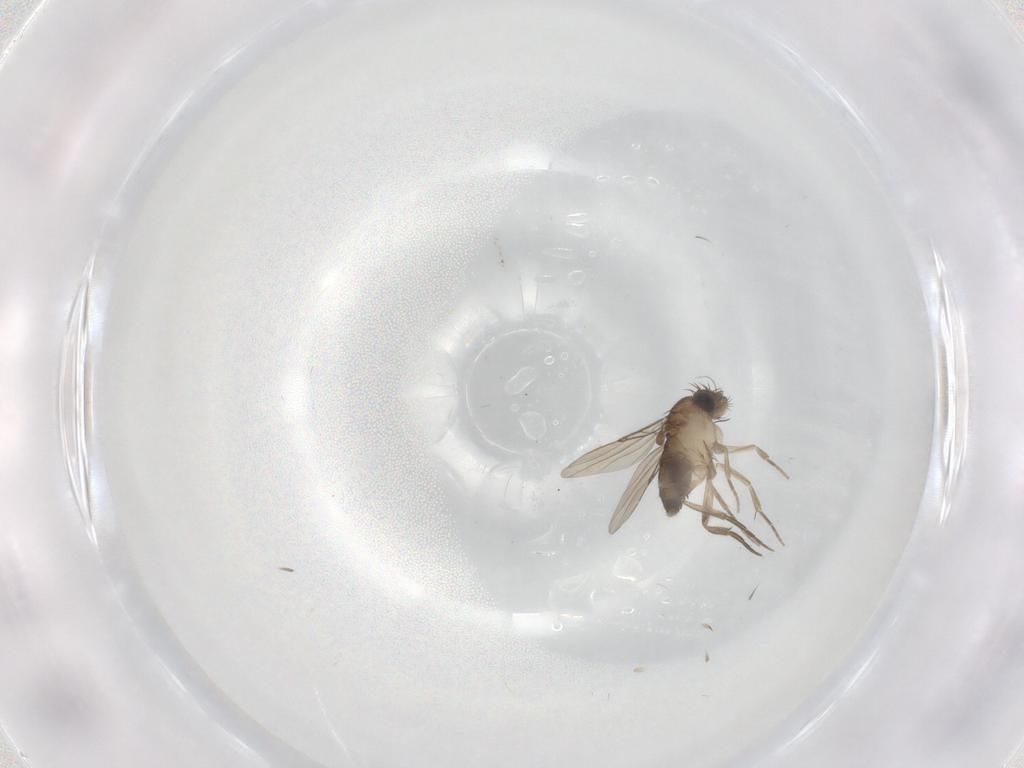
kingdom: Animalia
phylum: Arthropoda
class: Insecta
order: Diptera
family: Phoridae
